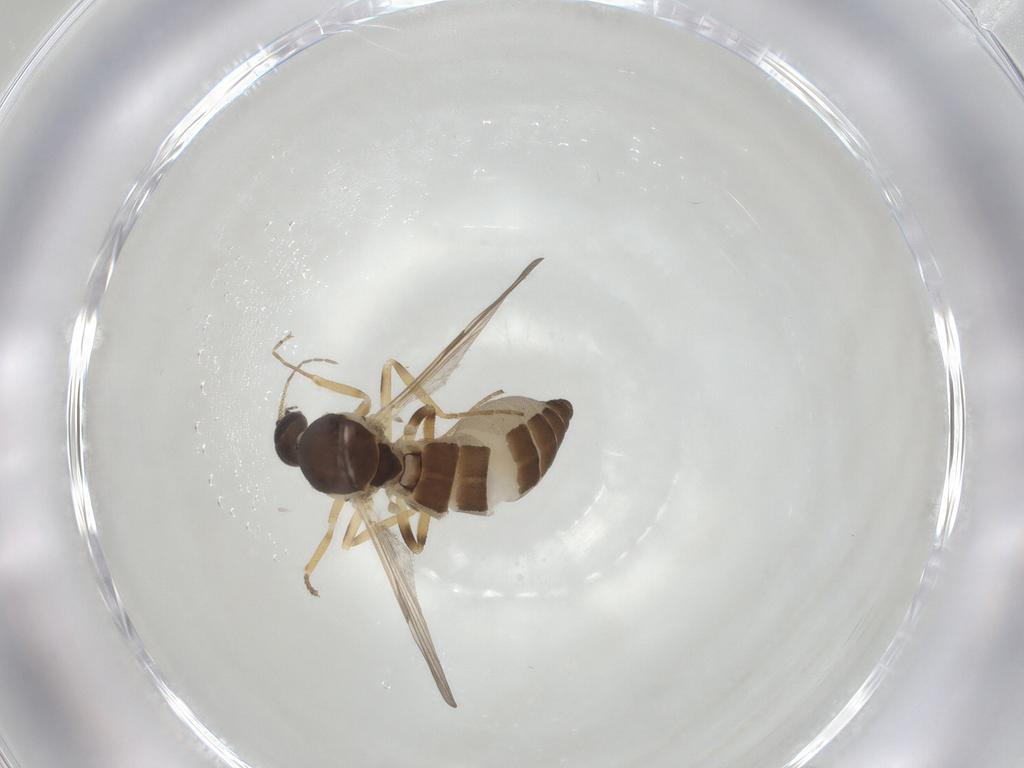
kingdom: Animalia
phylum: Arthropoda
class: Insecta
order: Diptera
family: Ceratopogonidae
